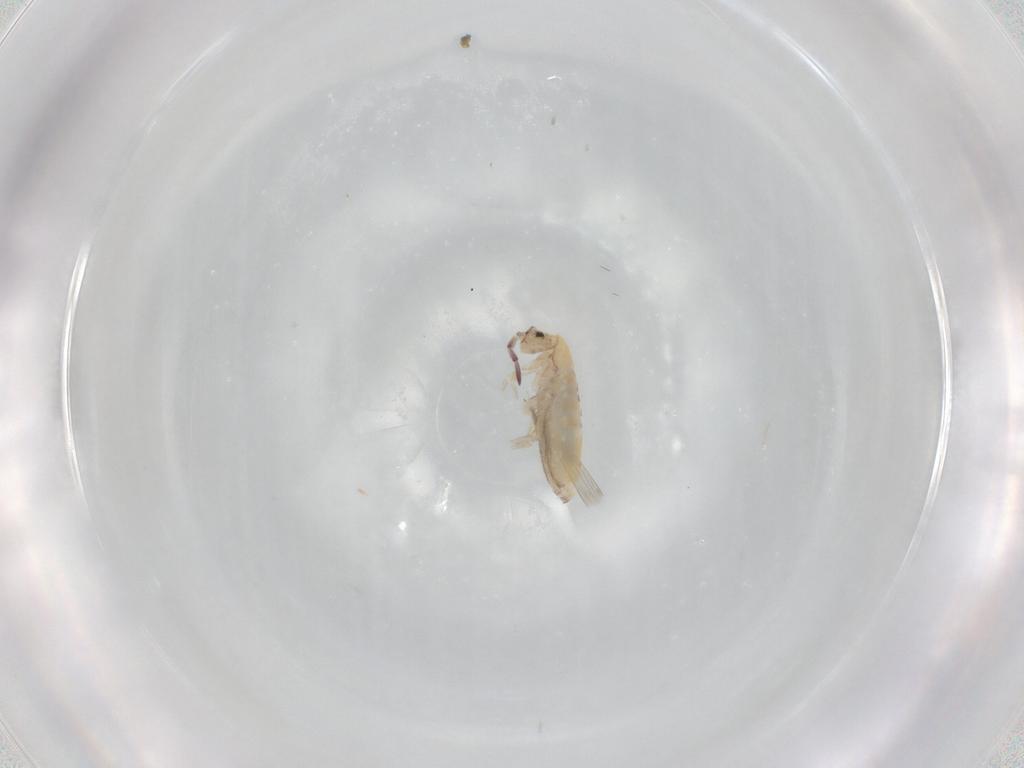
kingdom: Animalia
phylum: Arthropoda
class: Collembola
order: Entomobryomorpha
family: Entomobryidae
